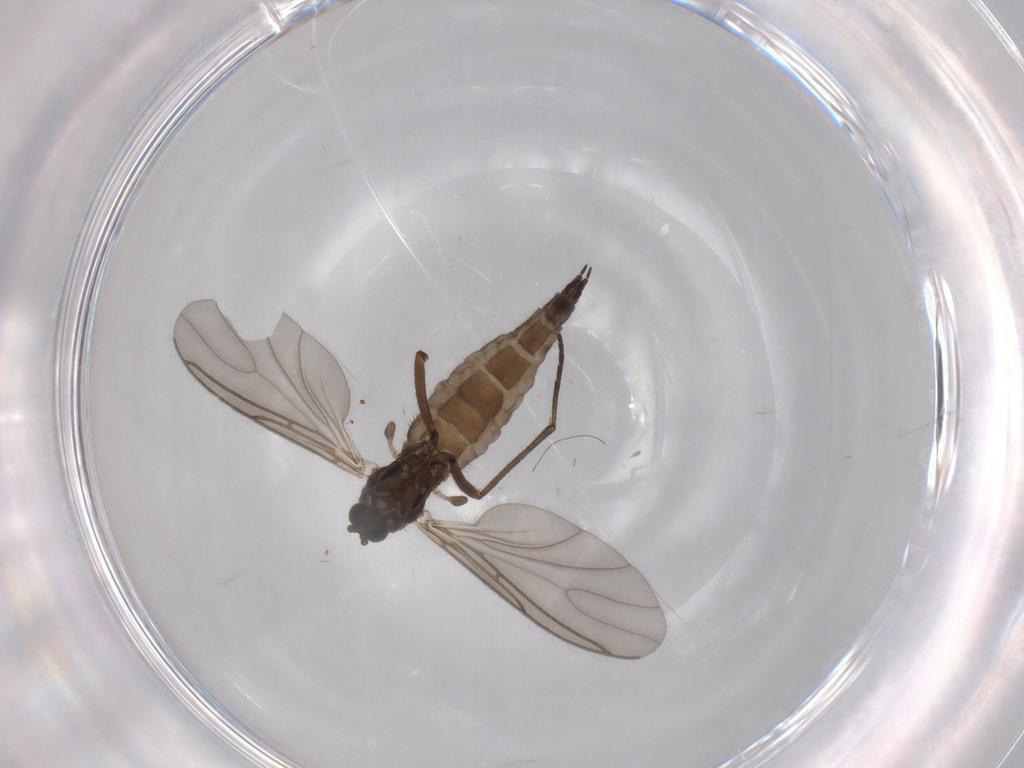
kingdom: Animalia
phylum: Arthropoda
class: Insecta
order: Diptera
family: Sciaridae
